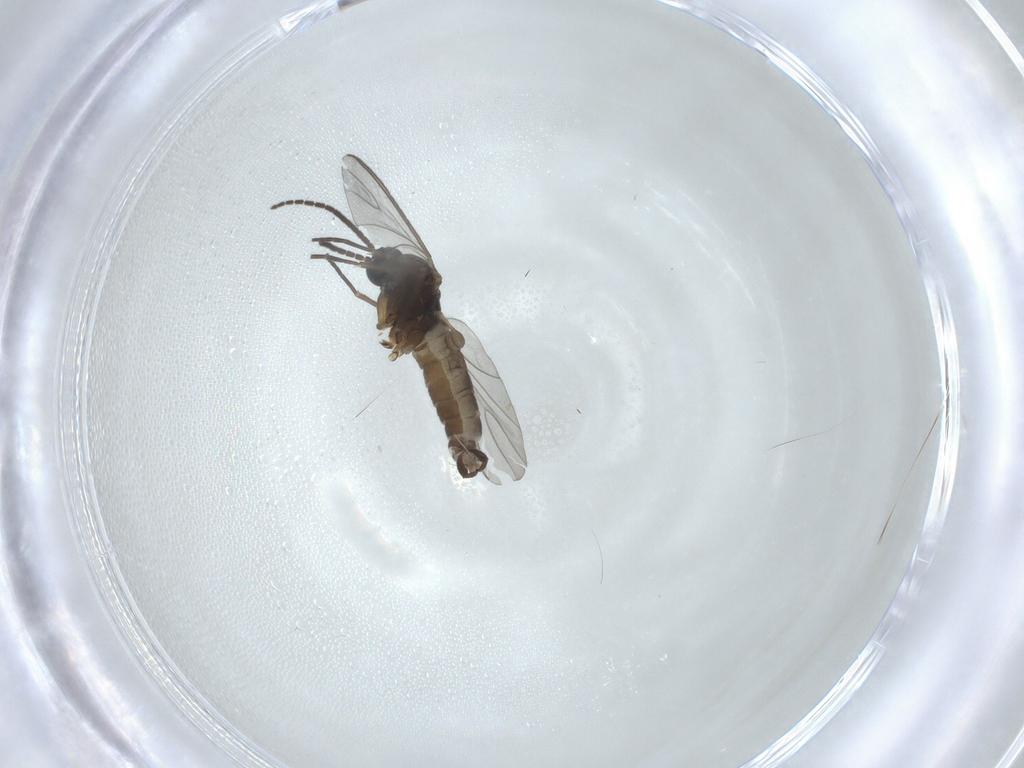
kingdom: Animalia
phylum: Arthropoda
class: Insecta
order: Diptera
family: Sciaridae
